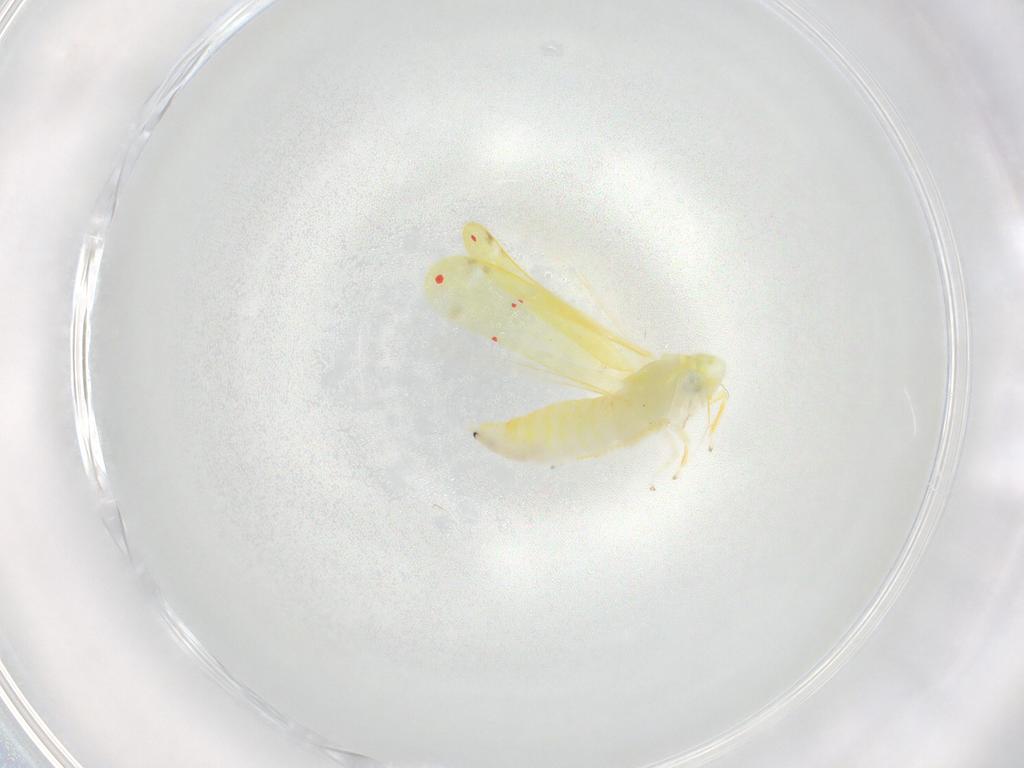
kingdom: Animalia
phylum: Arthropoda
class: Insecta
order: Hemiptera
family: Cicadellidae
